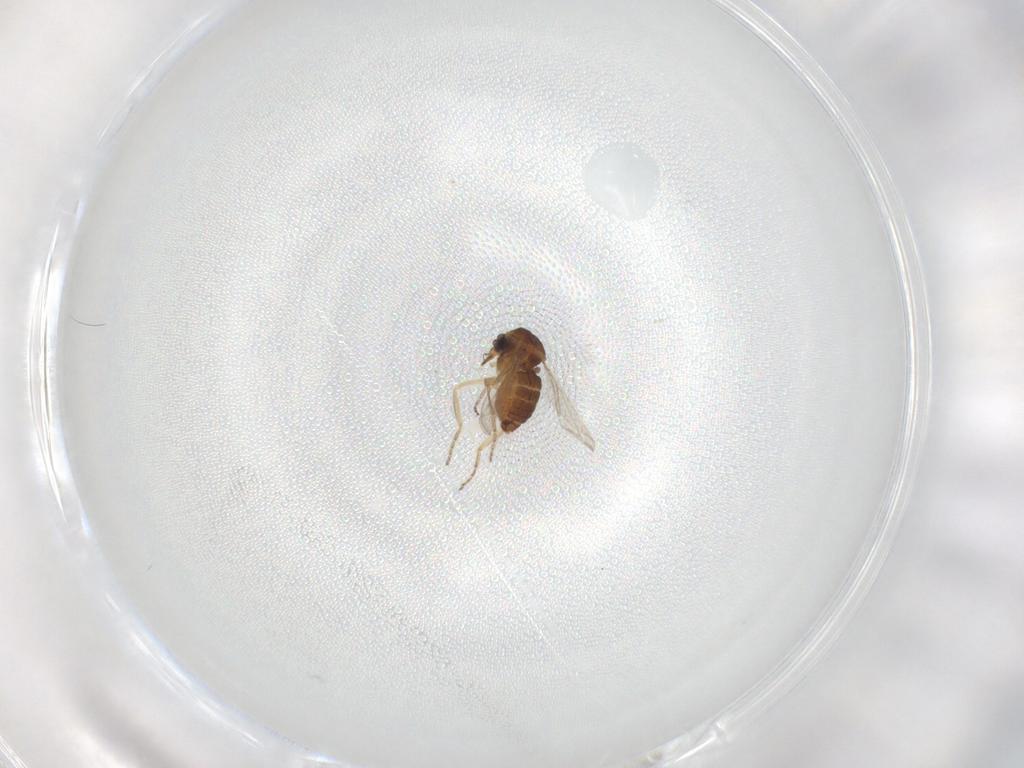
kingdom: Animalia
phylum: Arthropoda
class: Insecta
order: Diptera
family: Ceratopogonidae
